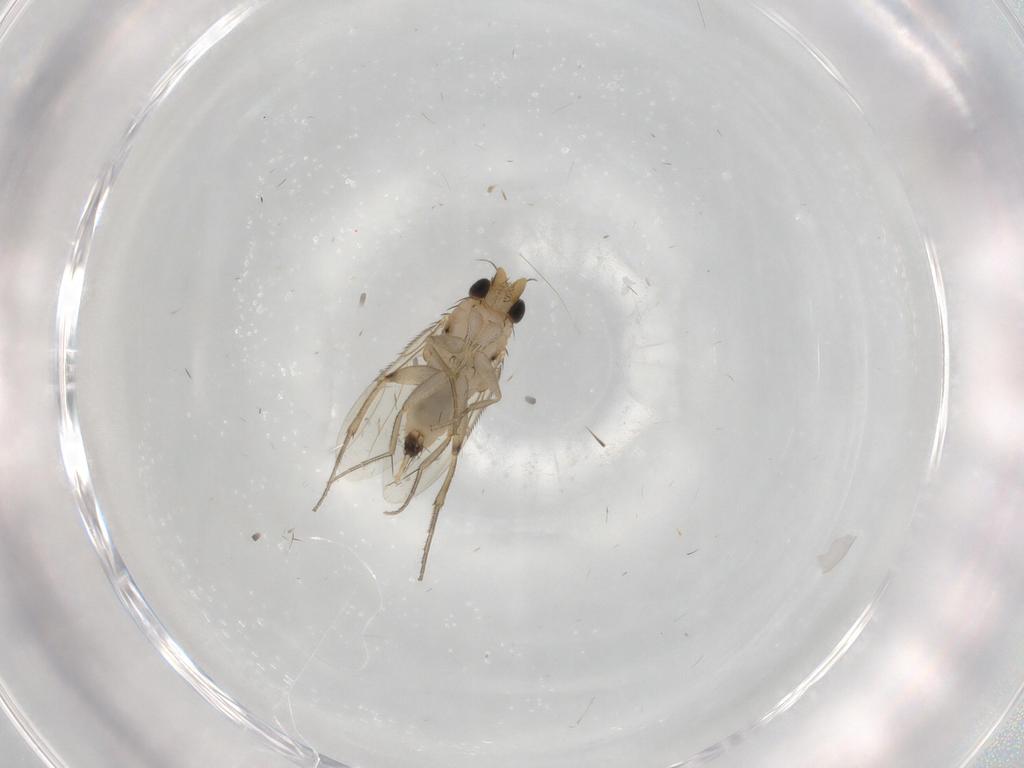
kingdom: Animalia
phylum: Arthropoda
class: Insecta
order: Diptera
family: Phoridae
